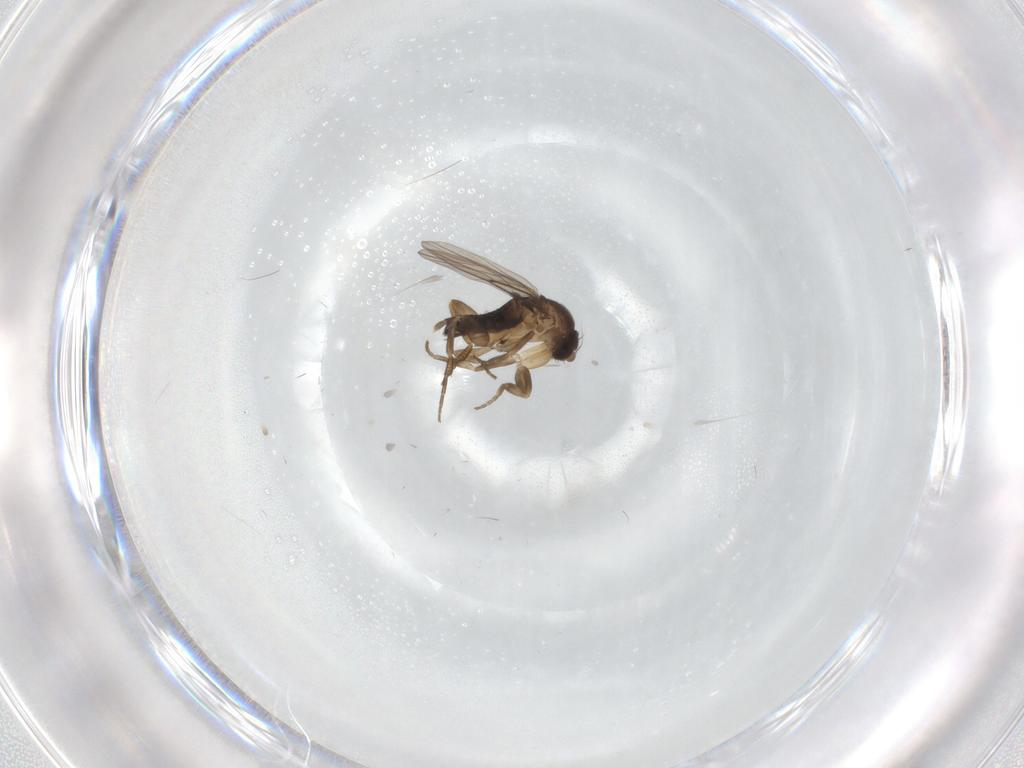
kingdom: Animalia
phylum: Arthropoda
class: Insecta
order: Diptera
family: Phoridae
